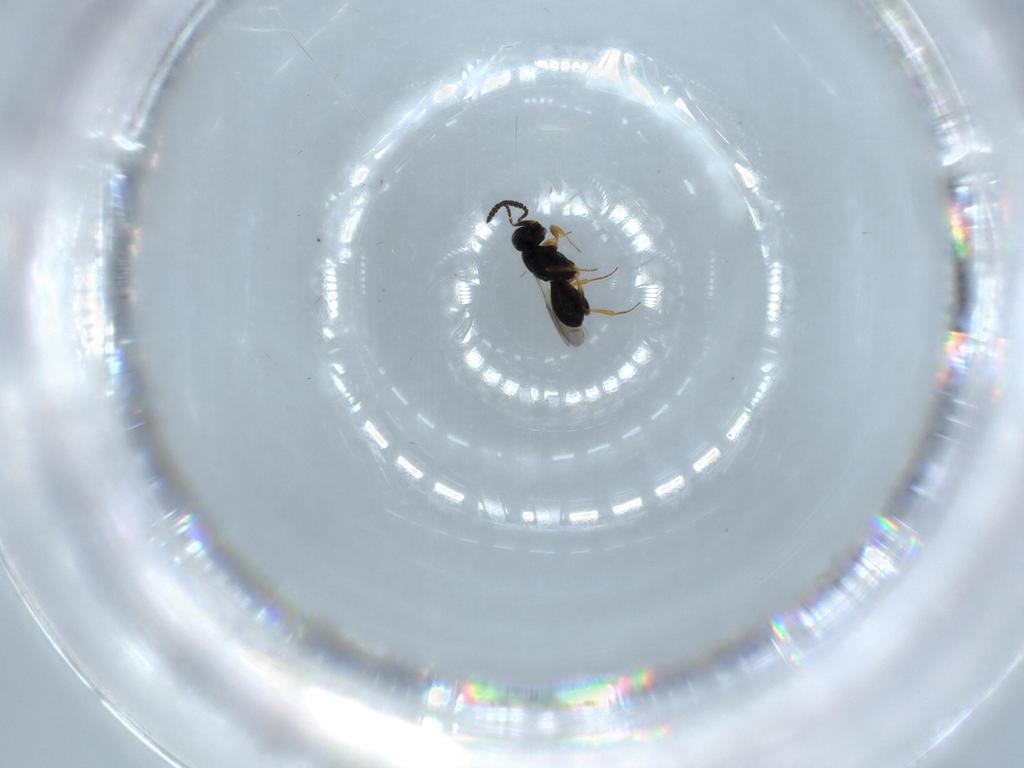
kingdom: Animalia
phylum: Arthropoda
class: Insecta
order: Hymenoptera
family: Scelionidae
